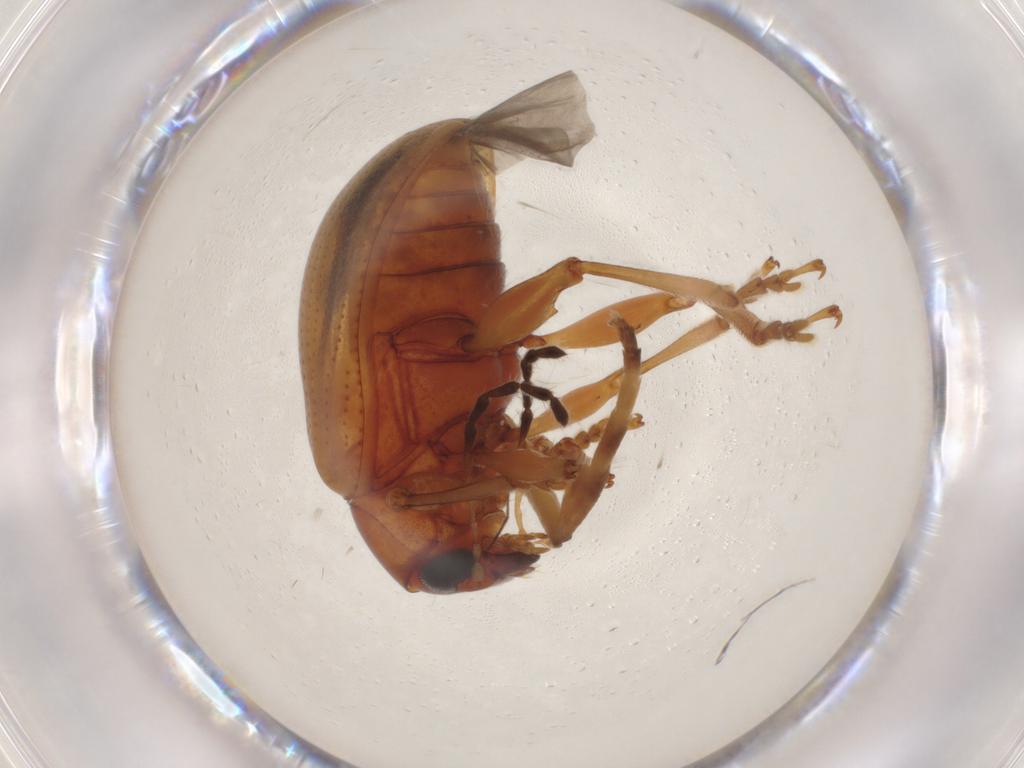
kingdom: Animalia
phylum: Arthropoda
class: Insecta
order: Coleoptera
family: Chrysomelidae
